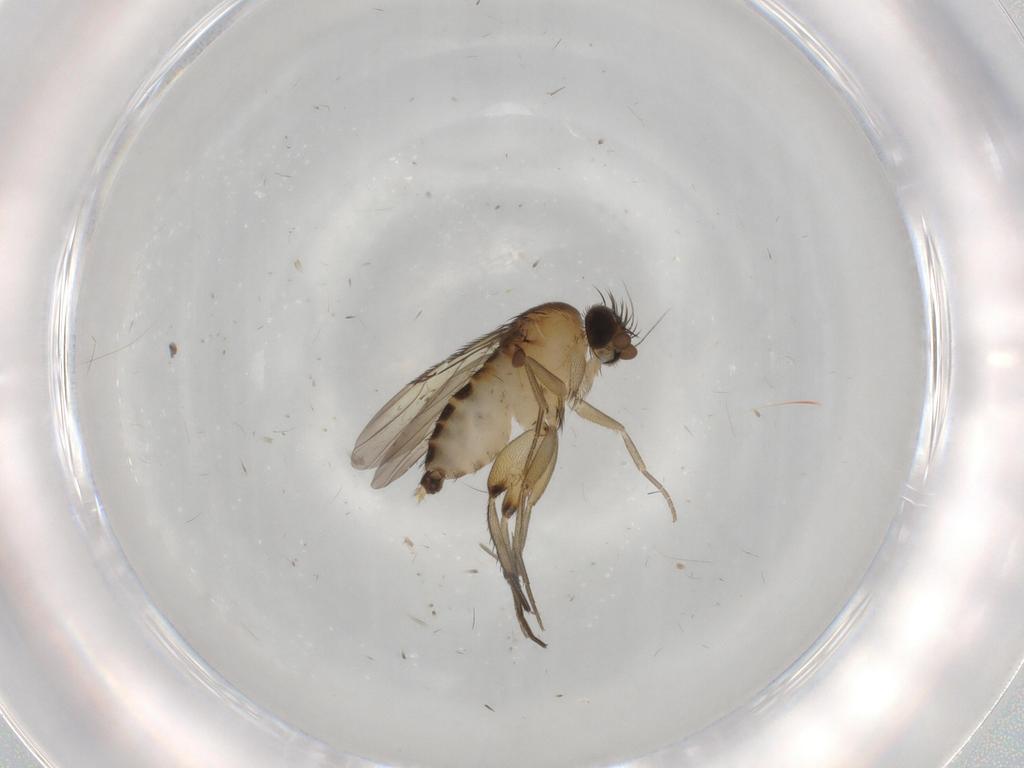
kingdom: Animalia
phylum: Arthropoda
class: Insecta
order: Diptera
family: Phoridae
